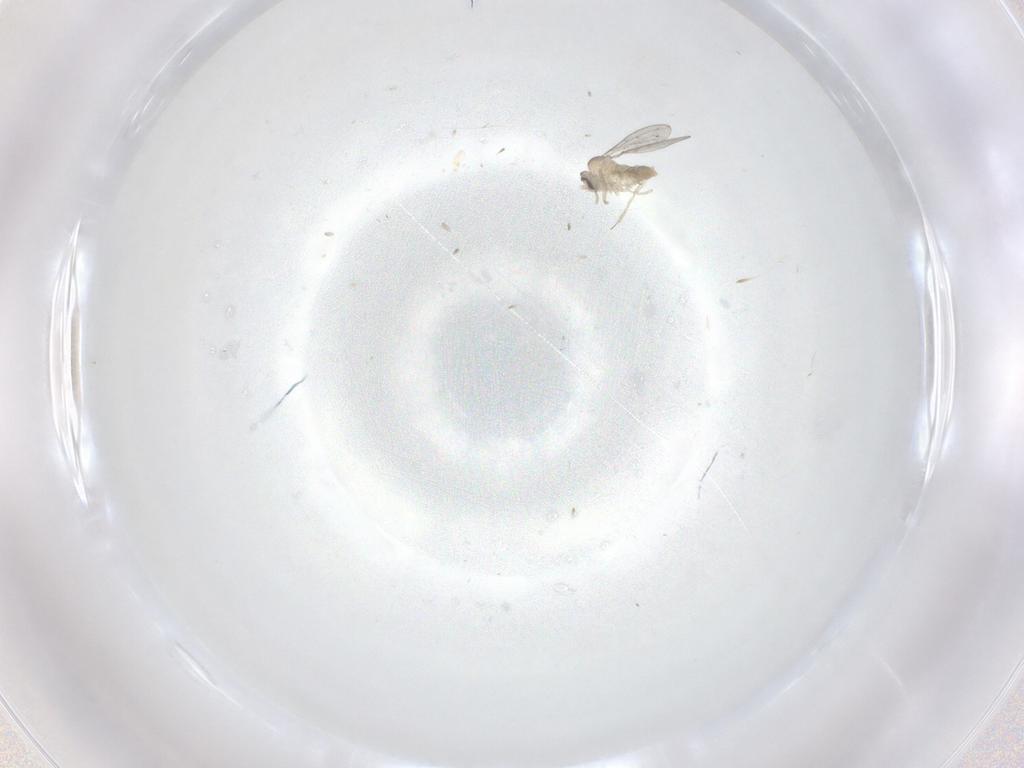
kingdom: Animalia
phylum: Arthropoda
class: Insecta
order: Diptera
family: Cecidomyiidae
